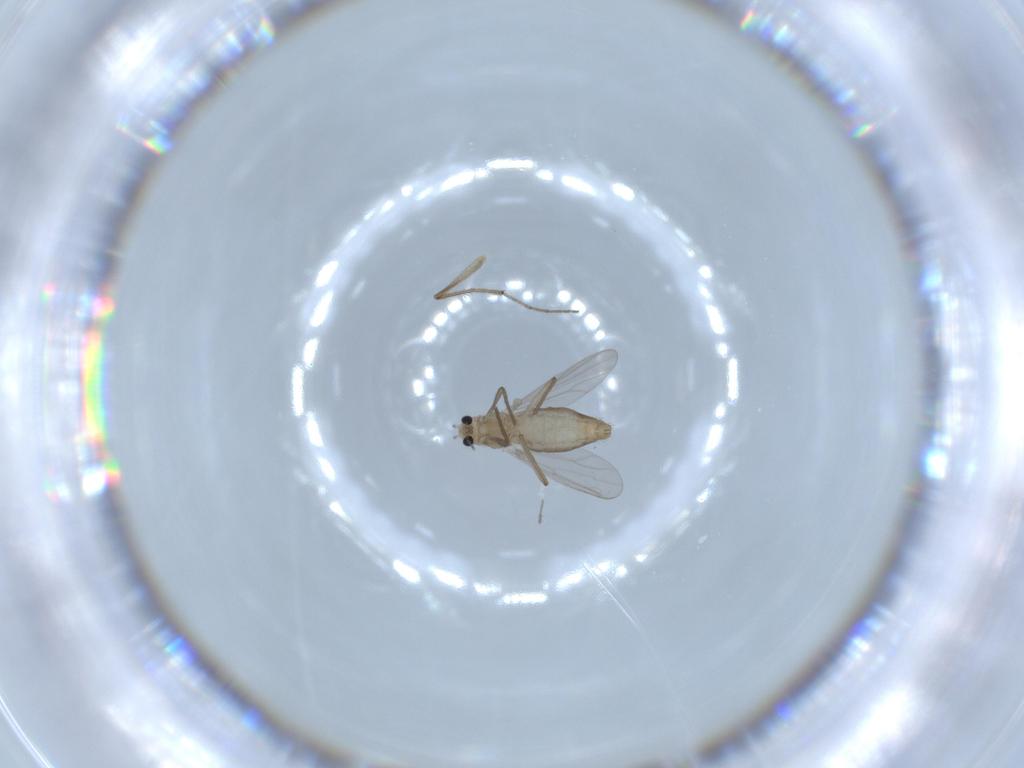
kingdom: Animalia
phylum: Arthropoda
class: Insecta
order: Diptera
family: Chironomidae
